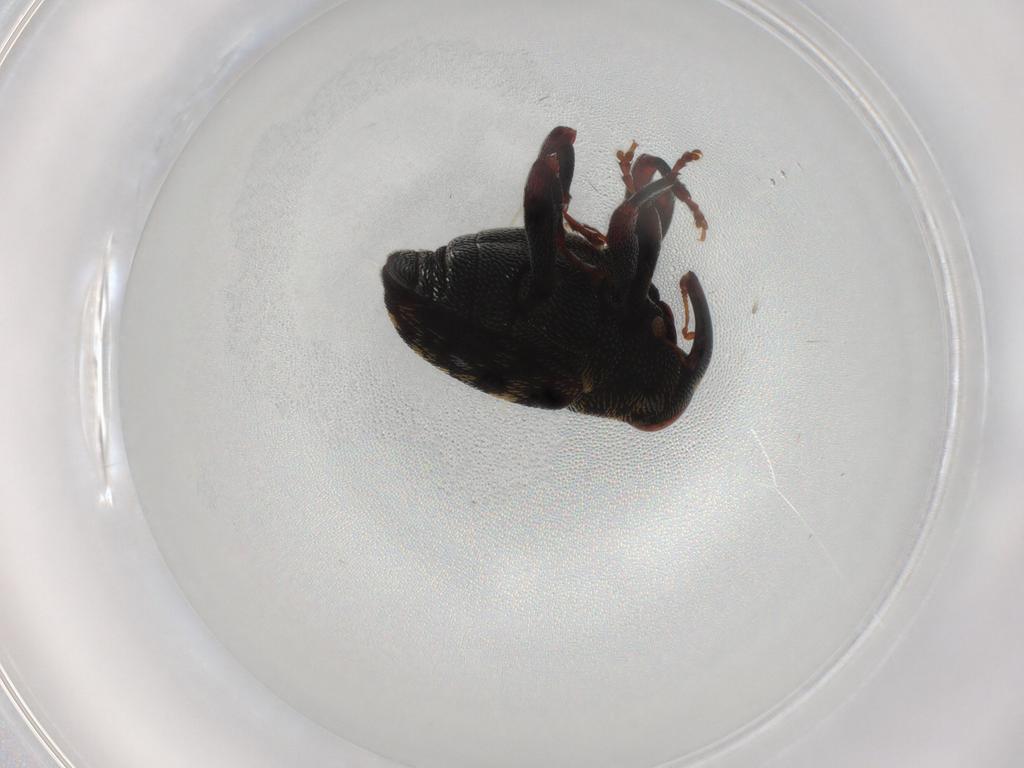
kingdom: Animalia
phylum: Arthropoda
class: Insecta
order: Coleoptera
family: Curculionidae
